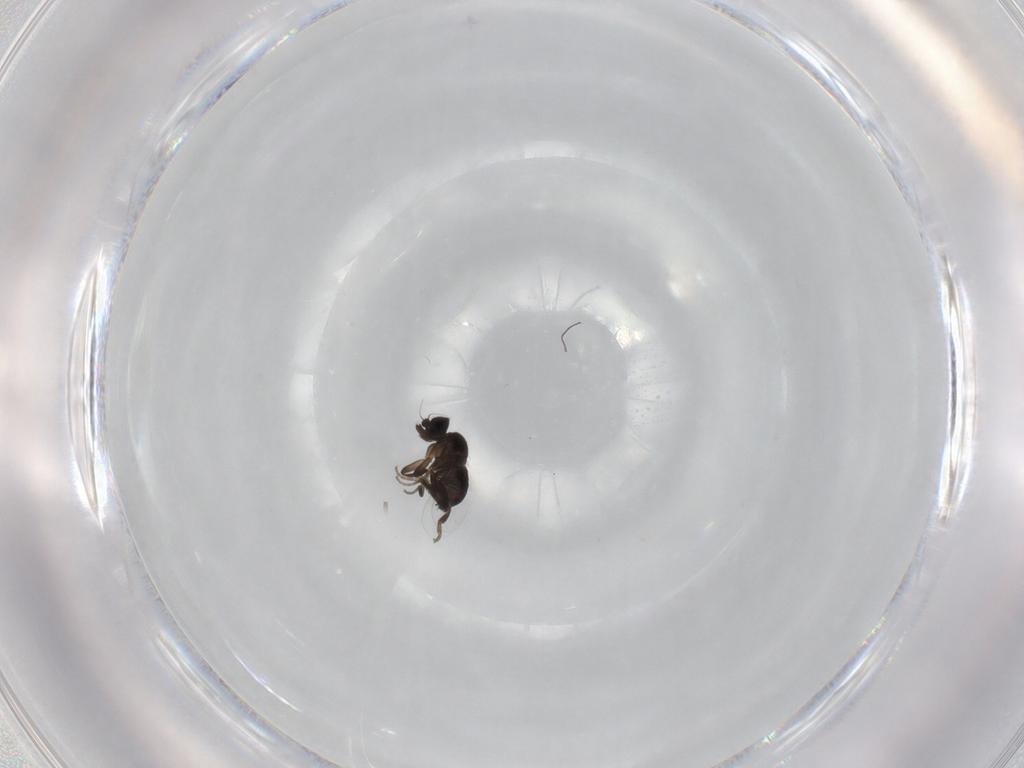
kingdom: Animalia
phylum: Arthropoda
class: Insecta
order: Diptera
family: Phoridae
